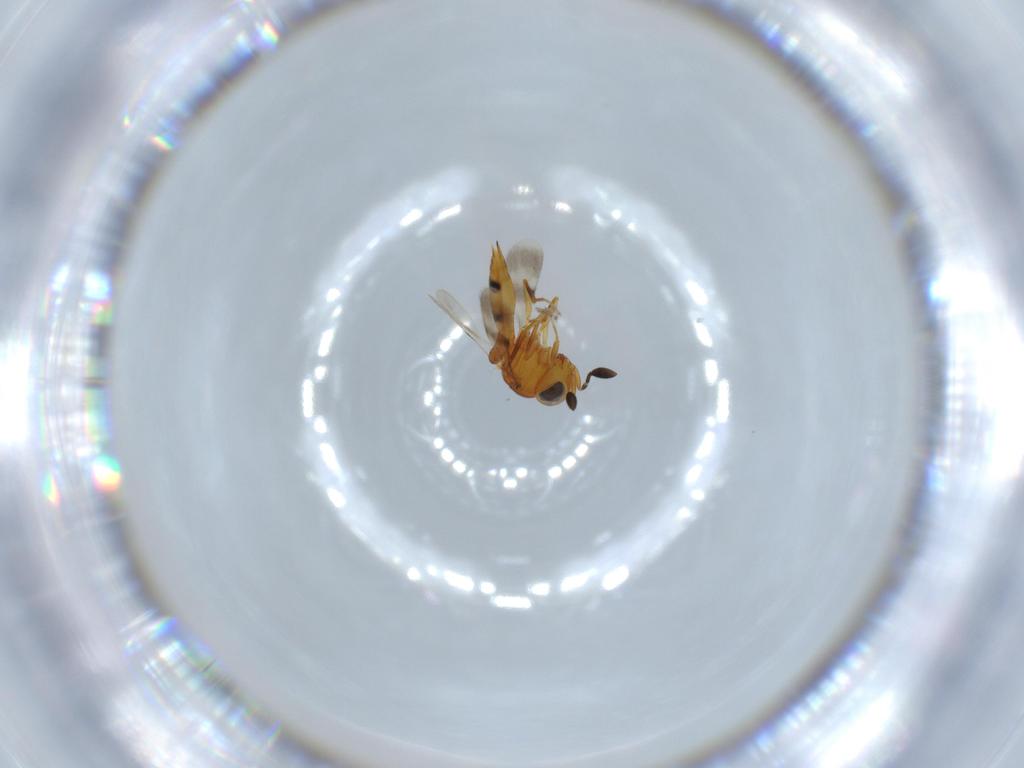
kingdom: Animalia
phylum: Arthropoda
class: Insecta
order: Hymenoptera
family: Scelionidae
